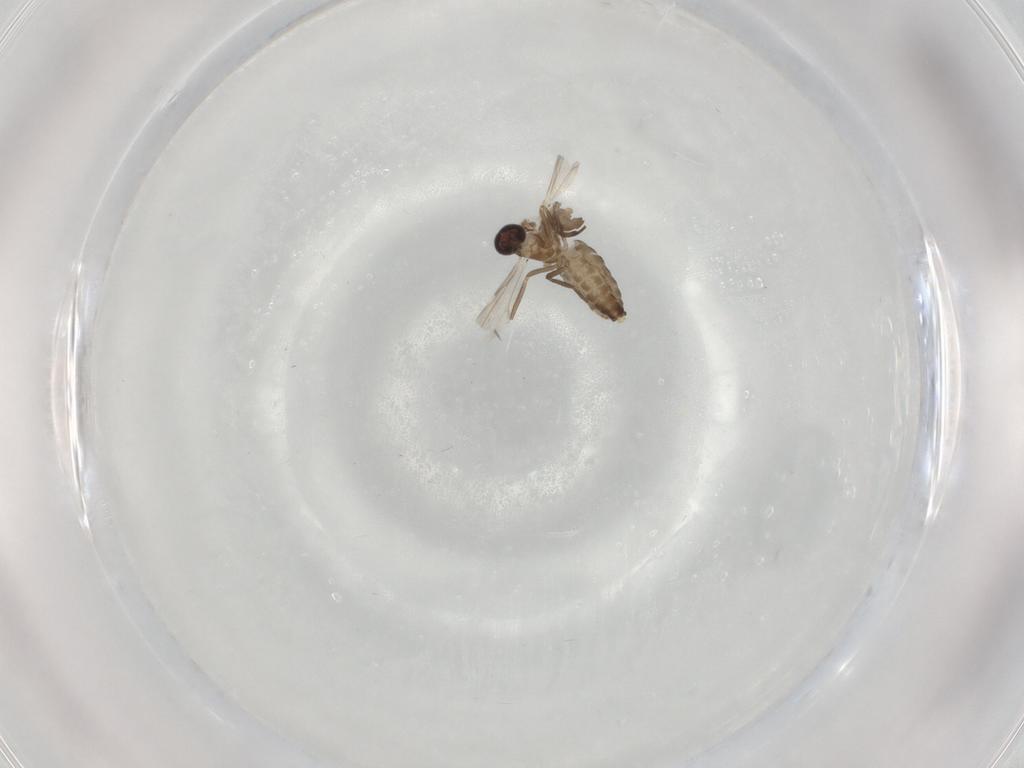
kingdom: Animalia
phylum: Arthropoda
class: Insecta
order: Diptera
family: Ceratopogonidae
